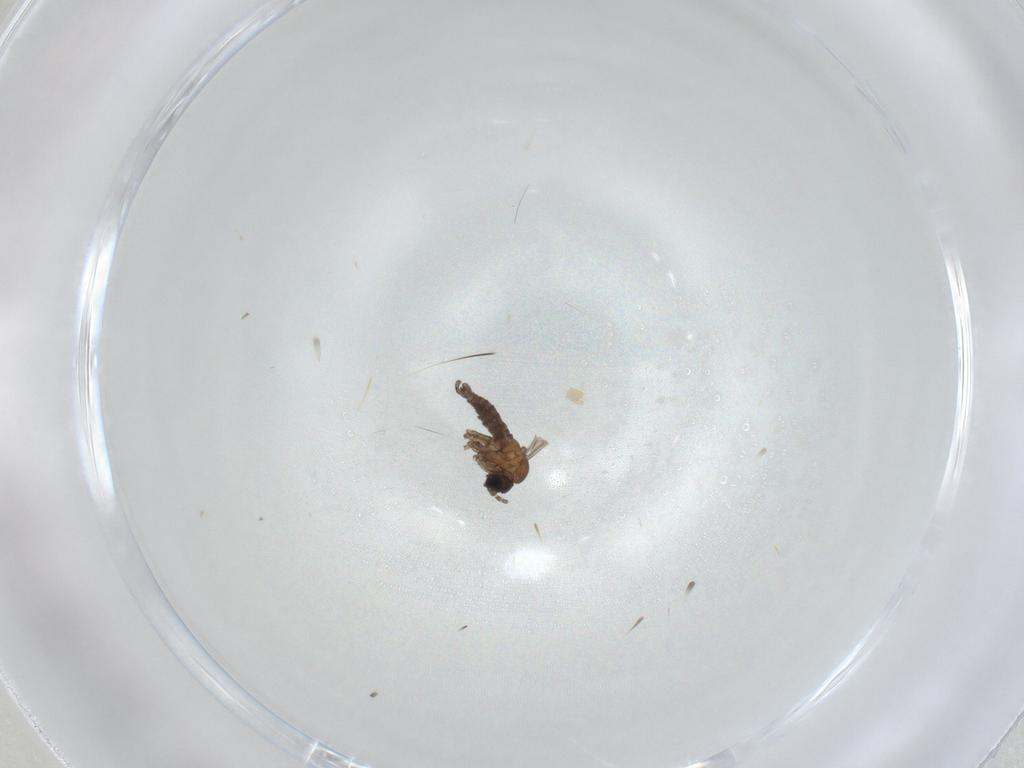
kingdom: Animalia
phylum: Arthropoda
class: Insecta
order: Diptera
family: Sciaridae
